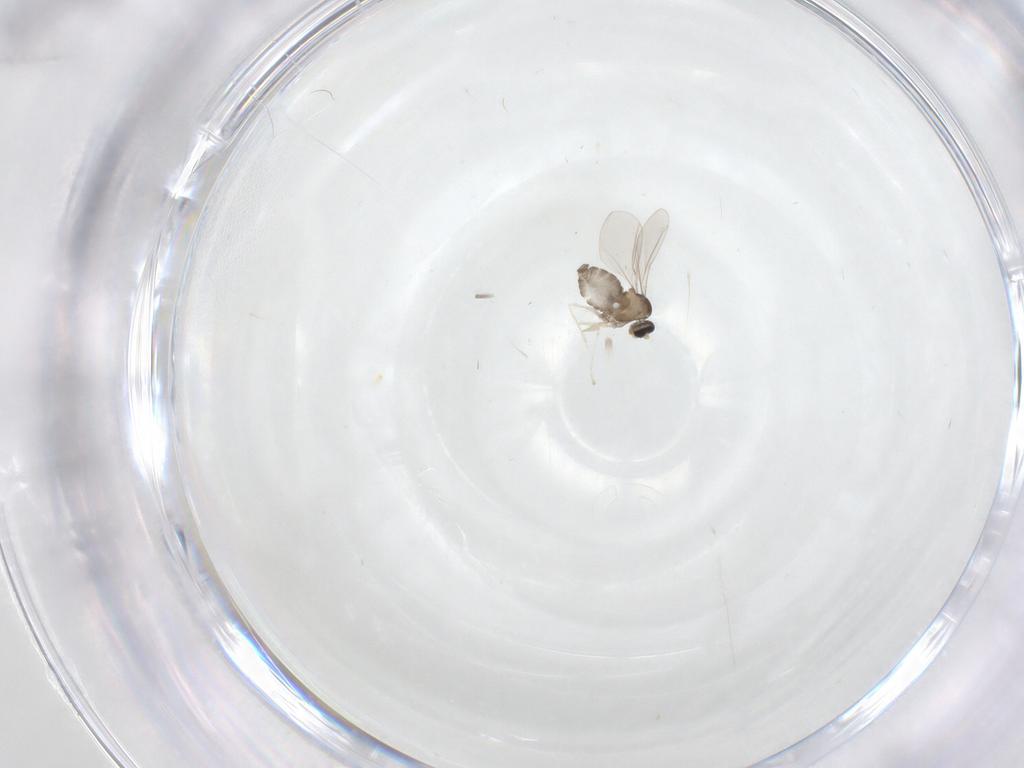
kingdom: Animalia
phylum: Arthropoda
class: Insecta
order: Diptera
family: Cecidomyiidae
